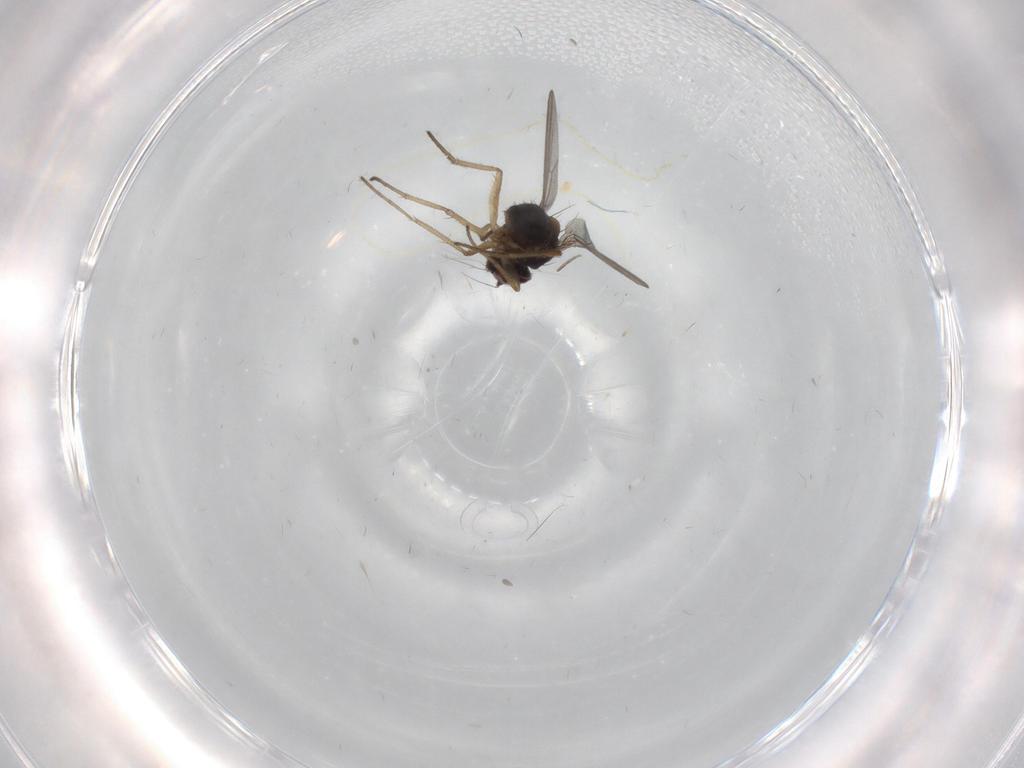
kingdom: Animalia
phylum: Arthropoda
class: Insecta
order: Diptera
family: Dolichopodidae
